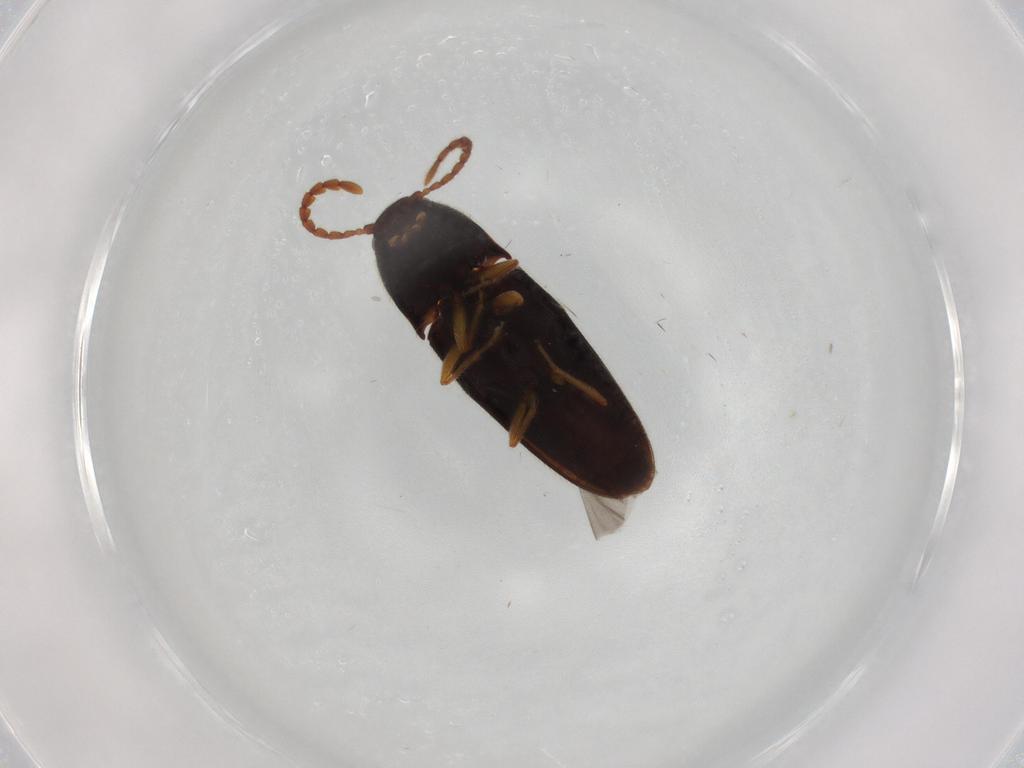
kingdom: Animalia
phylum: Arthropoda
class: Insecta
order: Coleoptera
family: Elateridae
